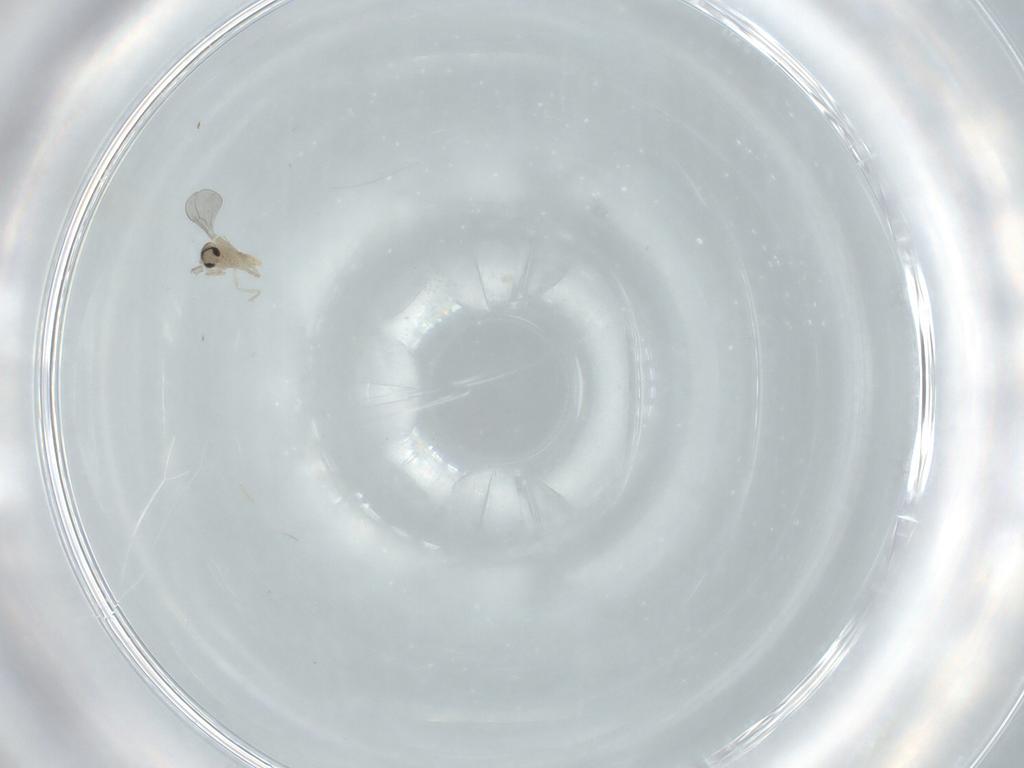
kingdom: Animalia
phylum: Arthropoda
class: Insecta
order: Diptera
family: Cecidomyiidae
